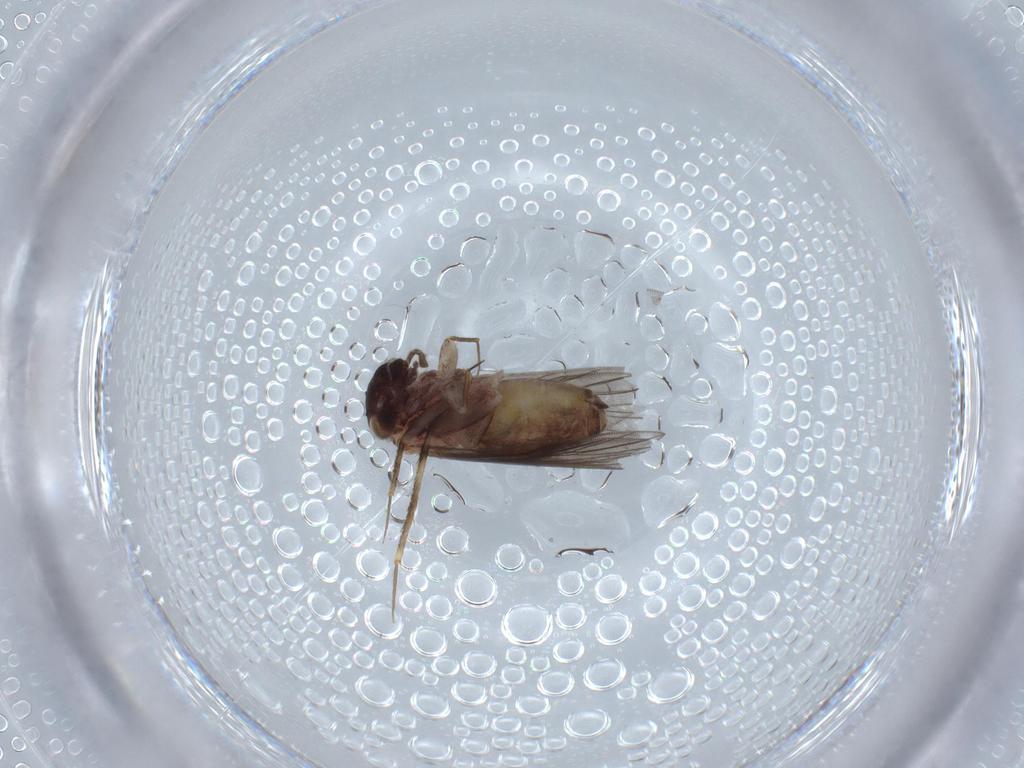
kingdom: Animalia
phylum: Arthropoda
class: Insecta
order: Psocodea
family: Lepidopsocidae
